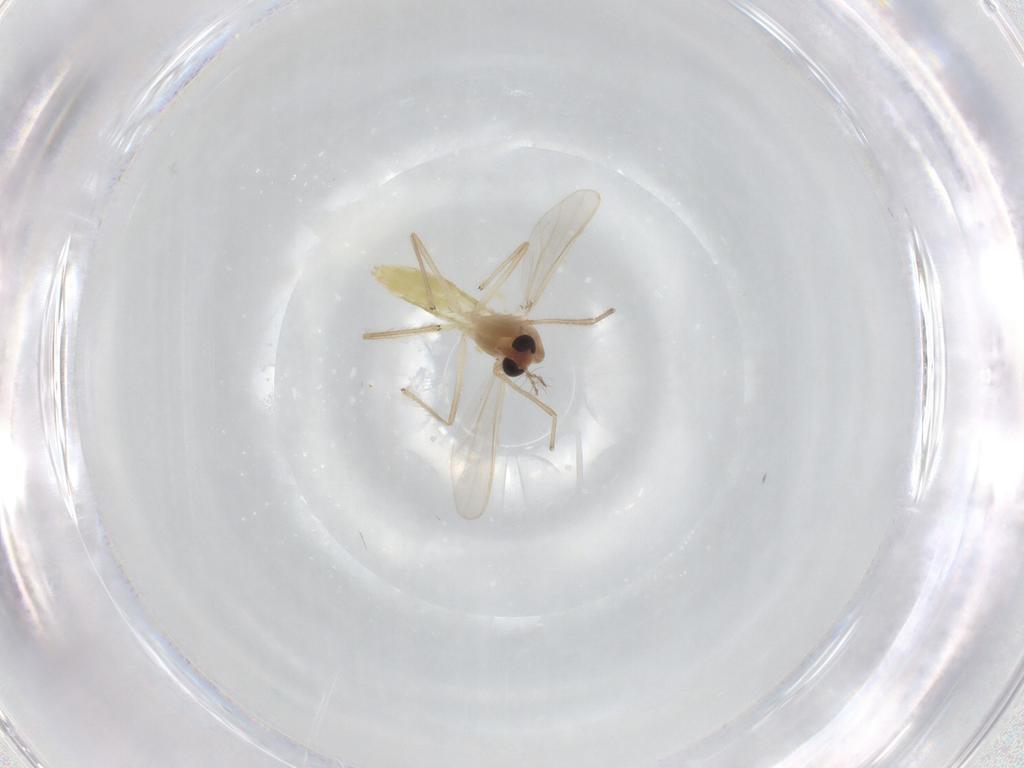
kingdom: Animalia
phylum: Arthropoda
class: Insecta
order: Diptera
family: Chironomidae
